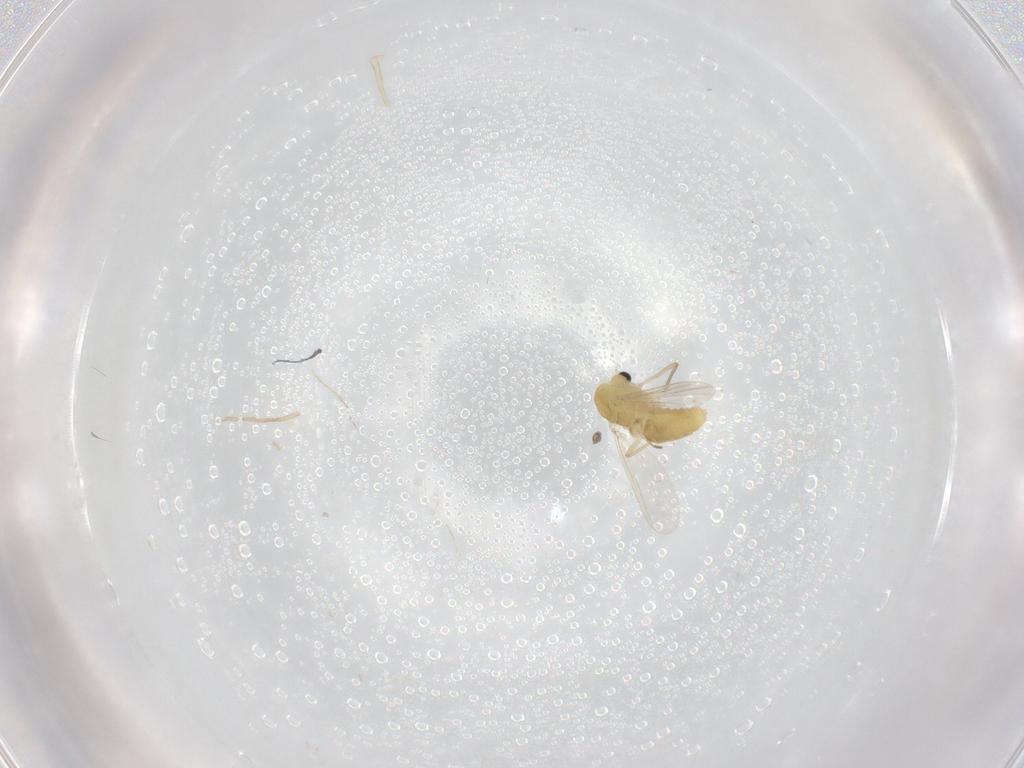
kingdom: Animalia
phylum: Arthropoda
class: Insecta
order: Diptera
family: Chironomidae
